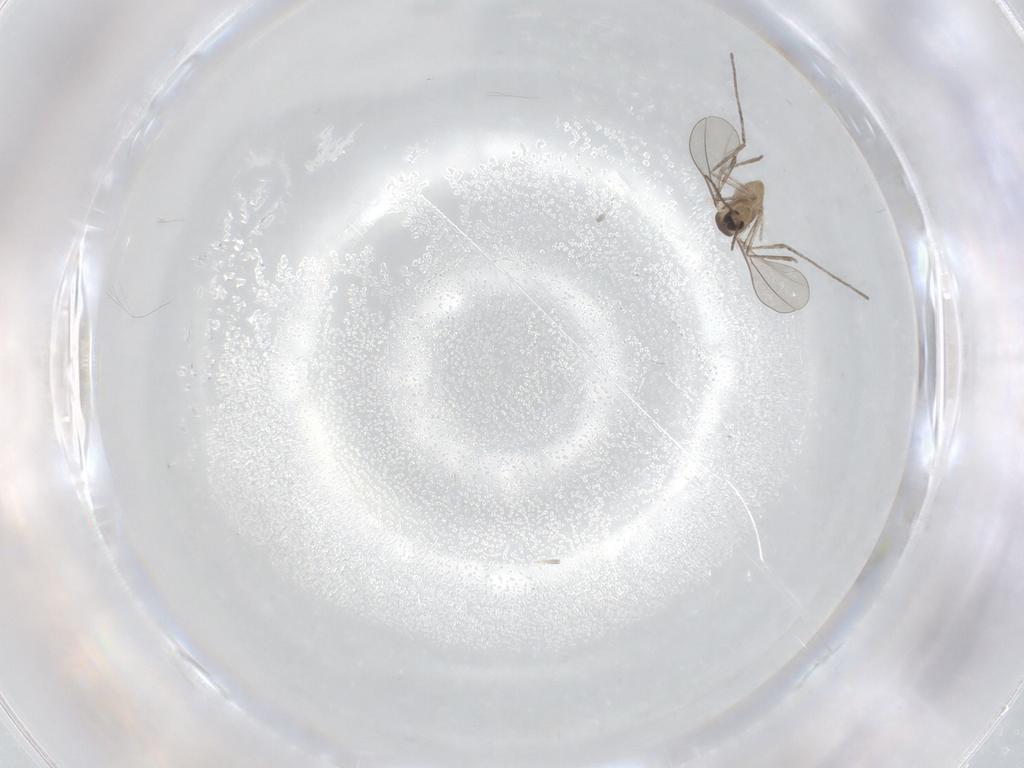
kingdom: Animalia
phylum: Arthropoda
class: Insecta
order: Diptera
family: Cecidomyiidae
